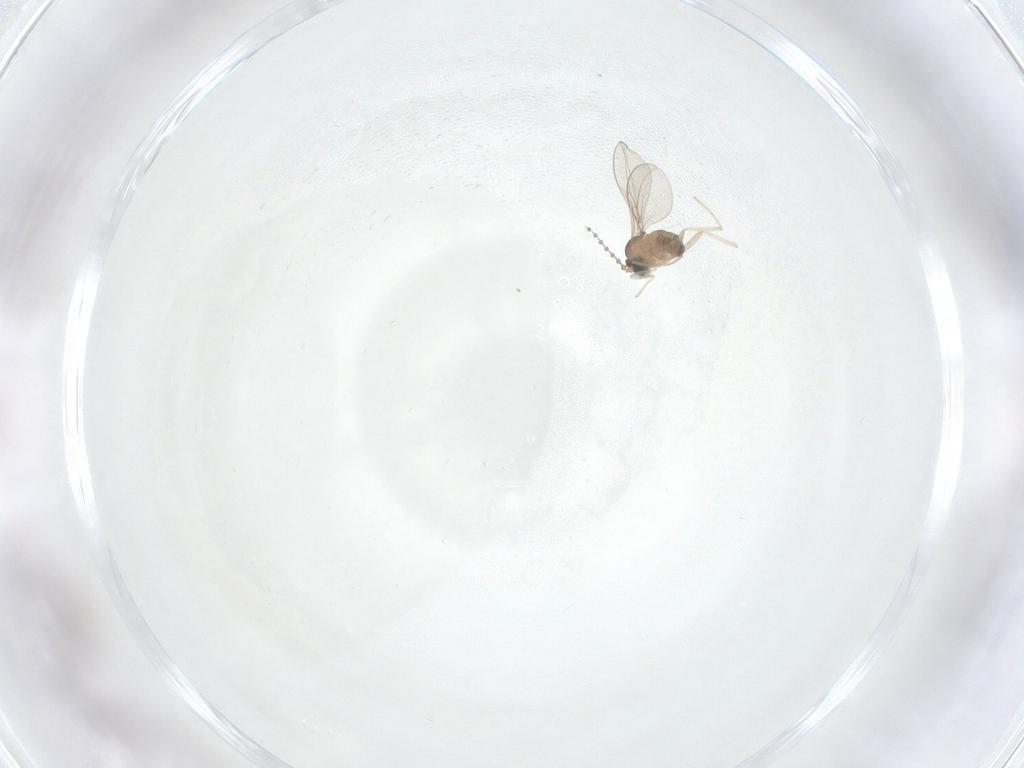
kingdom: Animalia
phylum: Arthropoda
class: Insecta
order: Diptera
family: Cecidomyiidae
